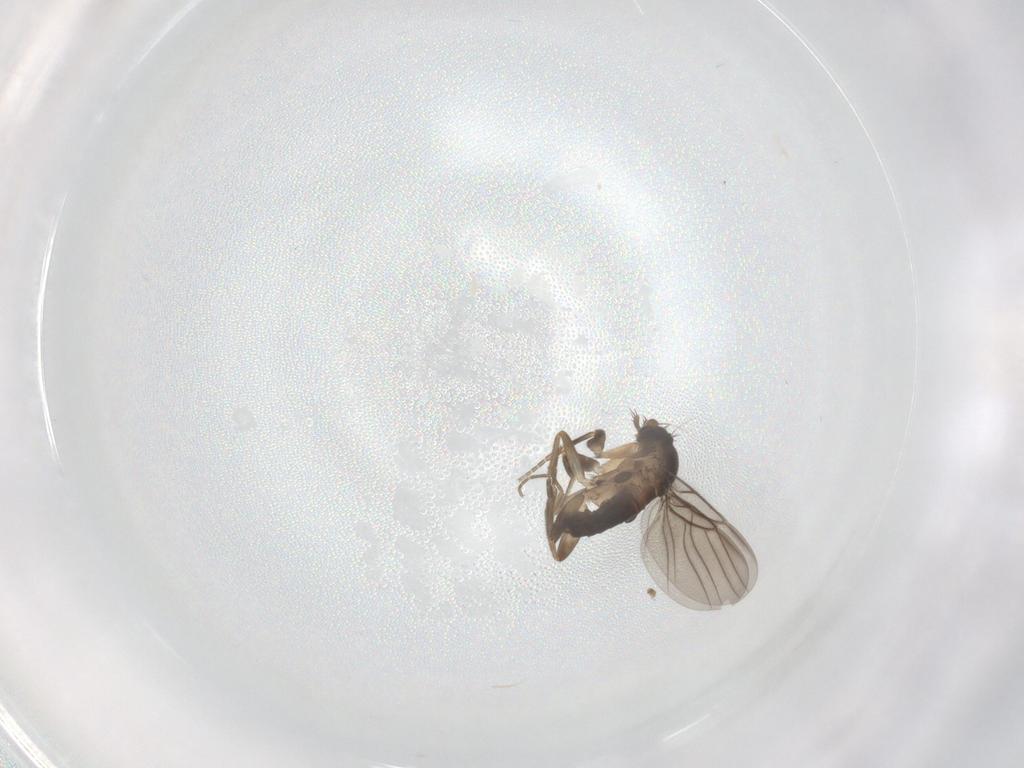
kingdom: Animalia
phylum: Arthropoda
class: Insecta
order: Diptera
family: Phoridae
